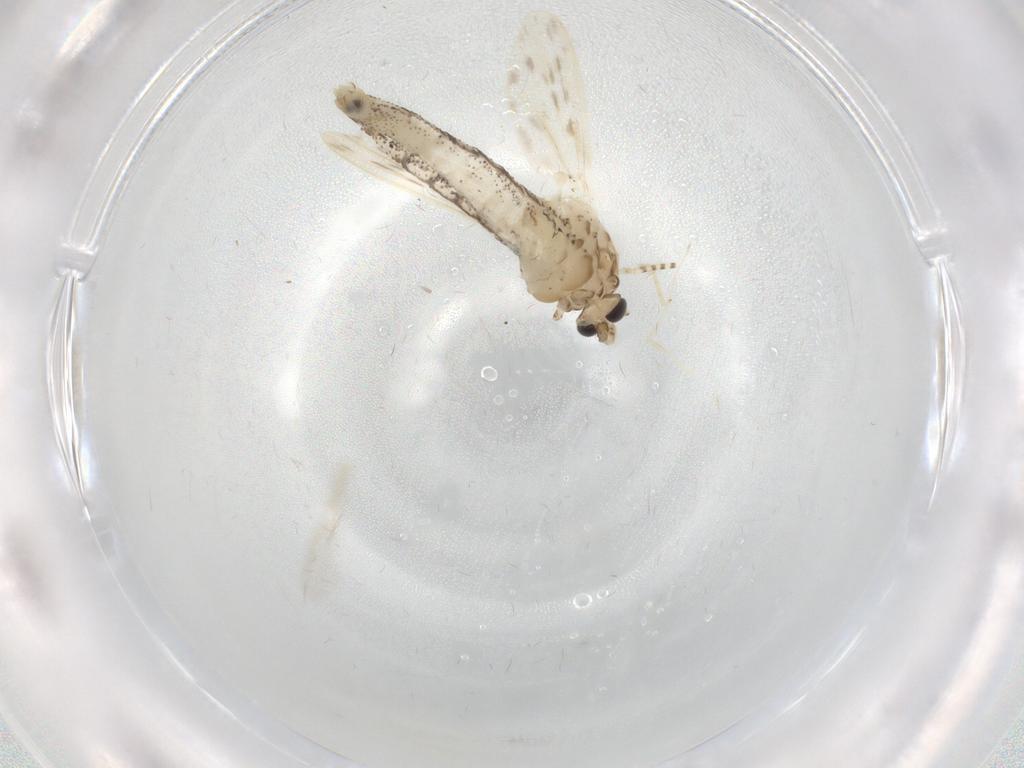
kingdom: Animalia
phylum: Arthropoda
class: Insecta
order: Diptera
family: Chaoboridae
